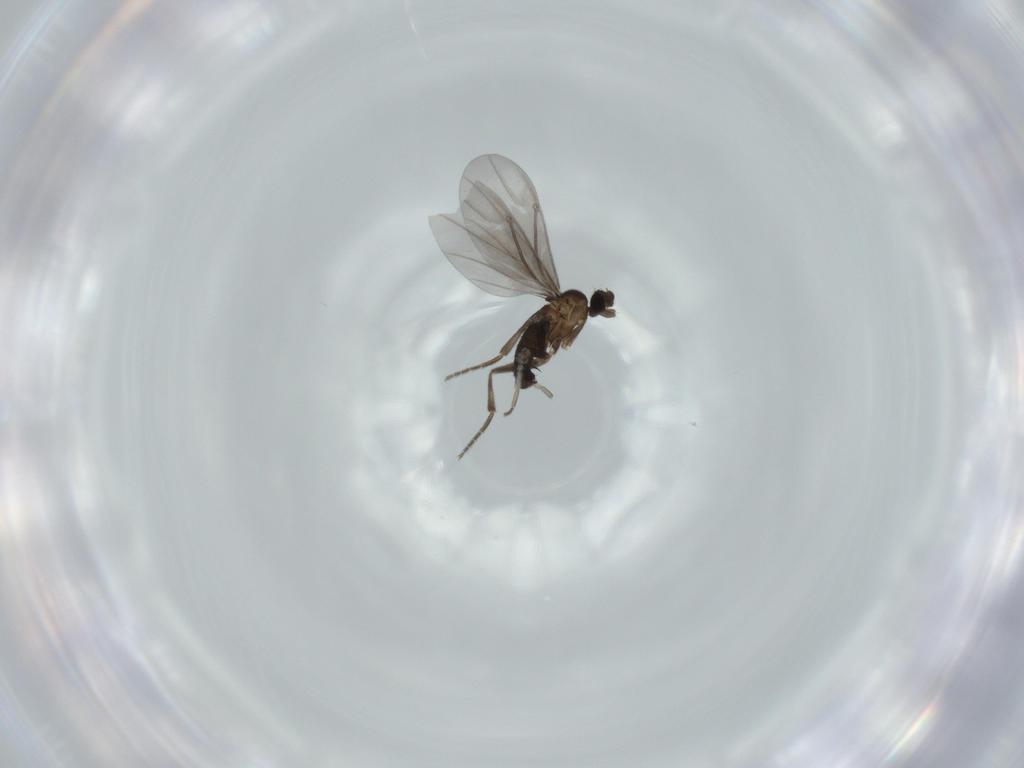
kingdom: Animalia
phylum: Arthropoda
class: Insecta
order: Diptera
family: Phoridae
